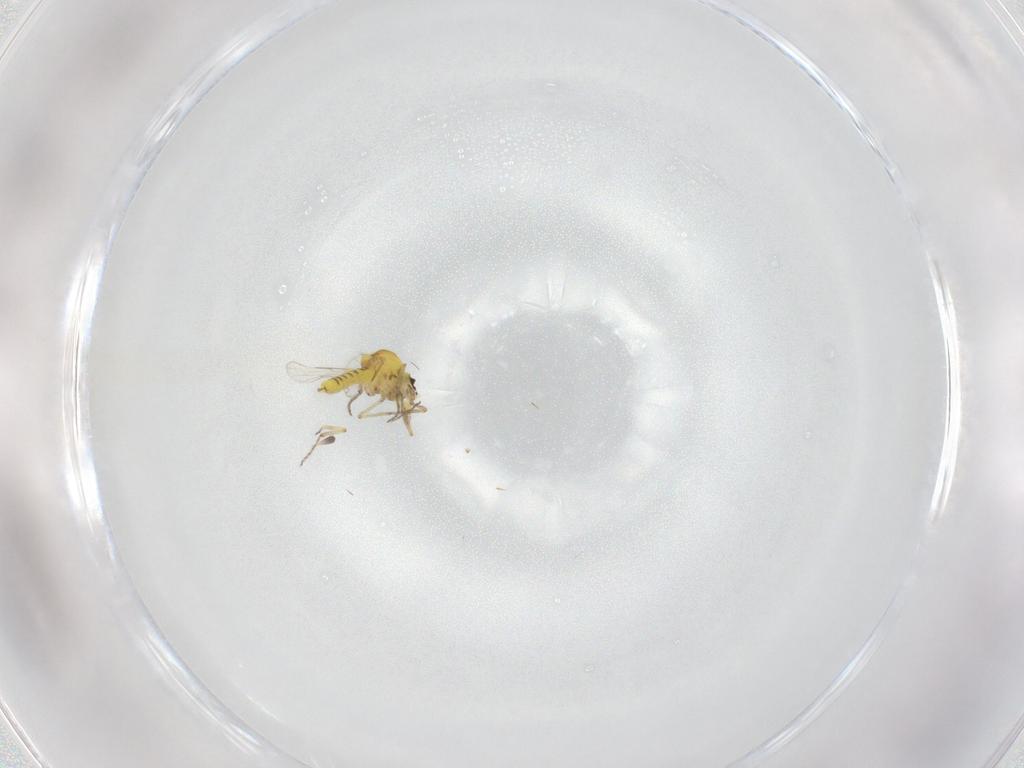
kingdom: Animalia
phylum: Arthropoda
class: Insecta
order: Diptera
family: Ceratopogonidae
